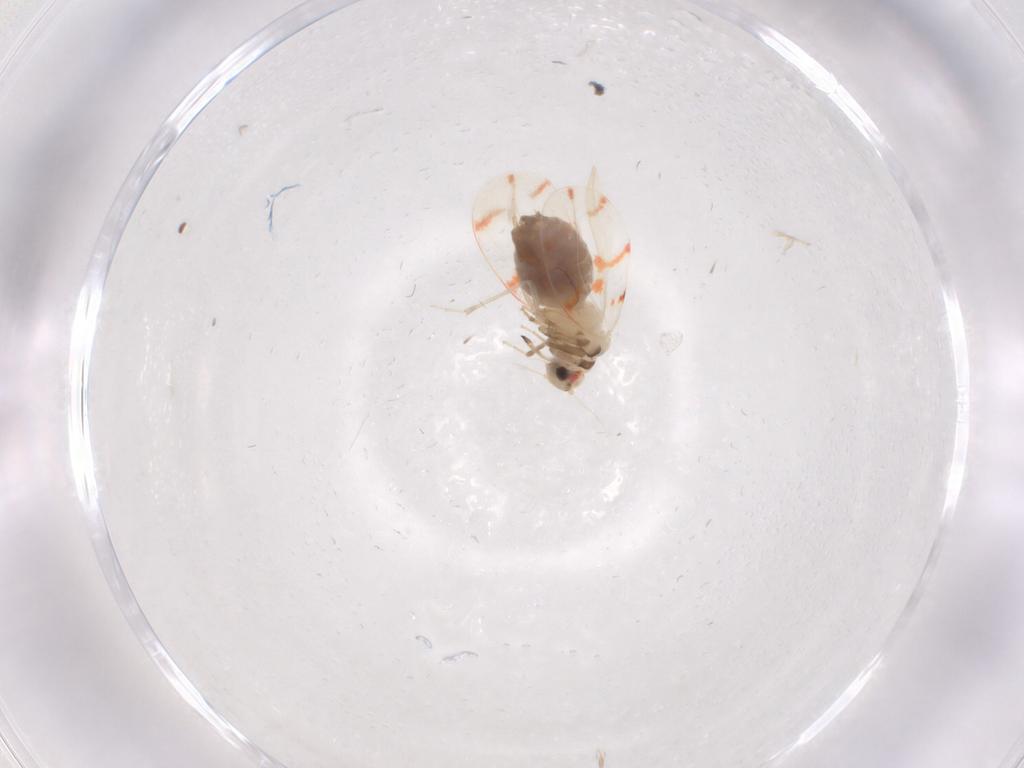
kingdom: Animalia
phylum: Arthropoda
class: Insecta
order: Hemiptera
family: Aleyrodidae
